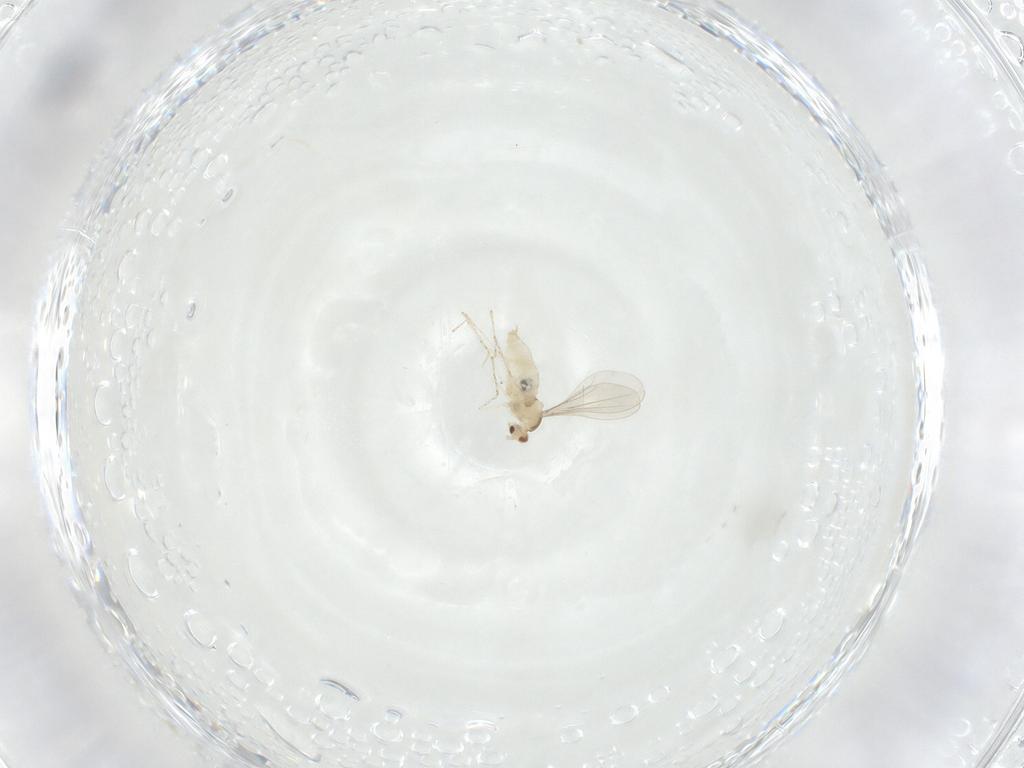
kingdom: Animalia
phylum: Arthropoda
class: Insecta
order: Diptera
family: Cecidomyiidae
